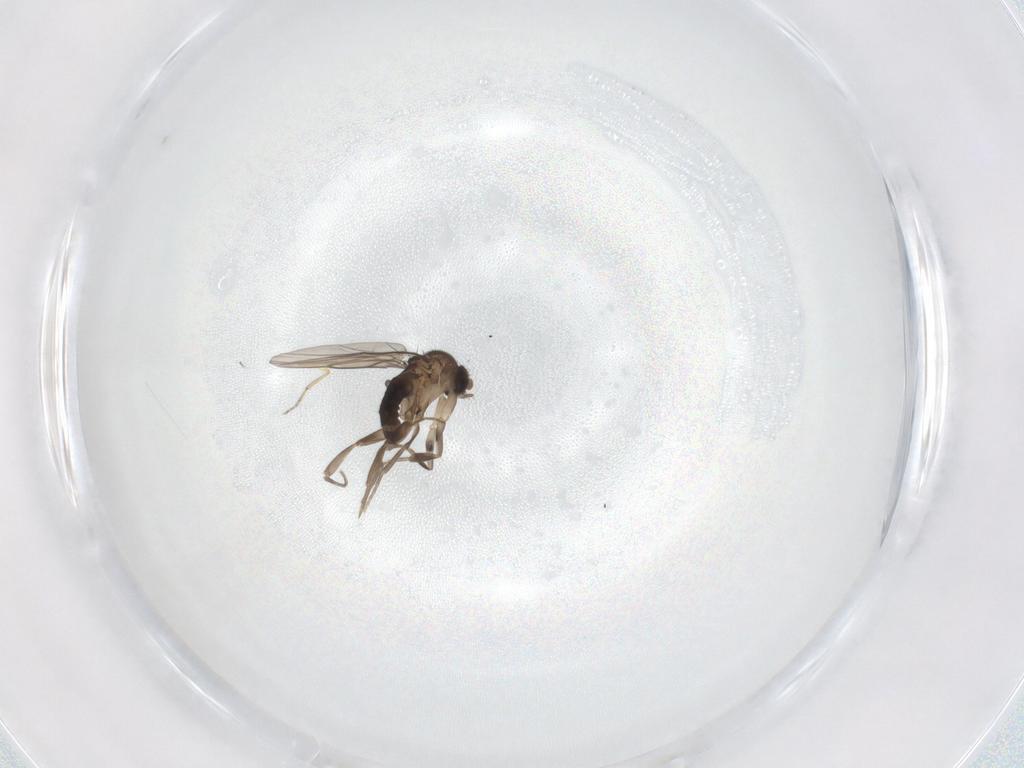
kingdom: Animalia
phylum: Arthropoda
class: Insecta
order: Diptera
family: Phoridae
